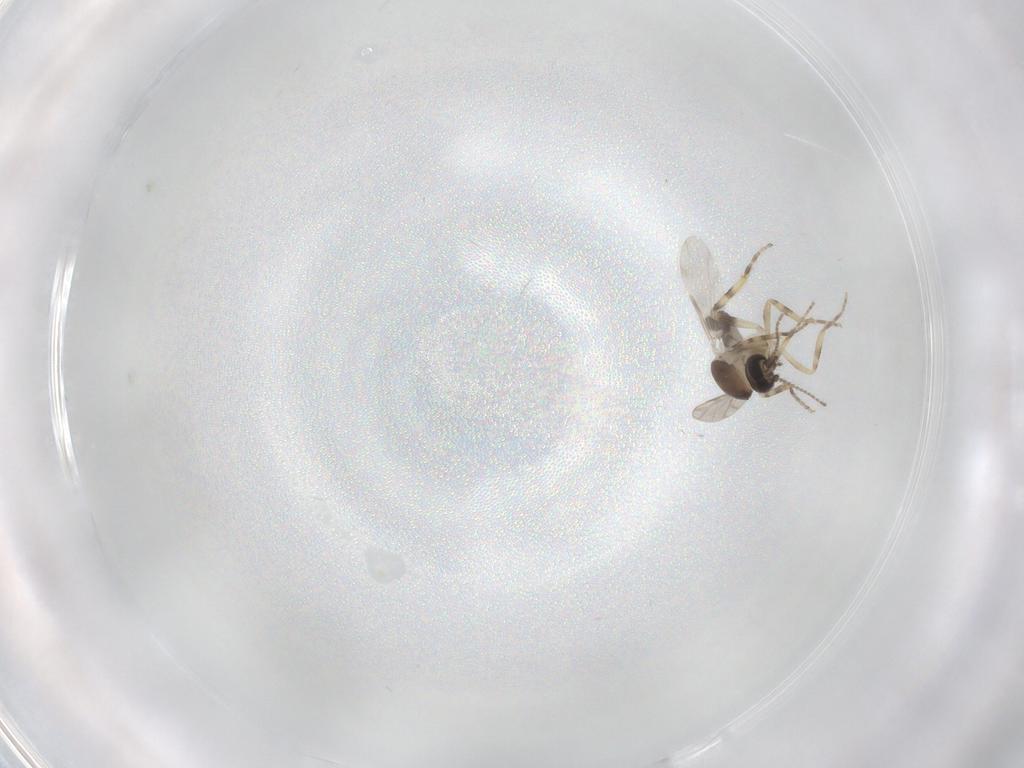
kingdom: Animalia
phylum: Arthropoda
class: Insecta
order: Diptera
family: Ceratopogonidae
